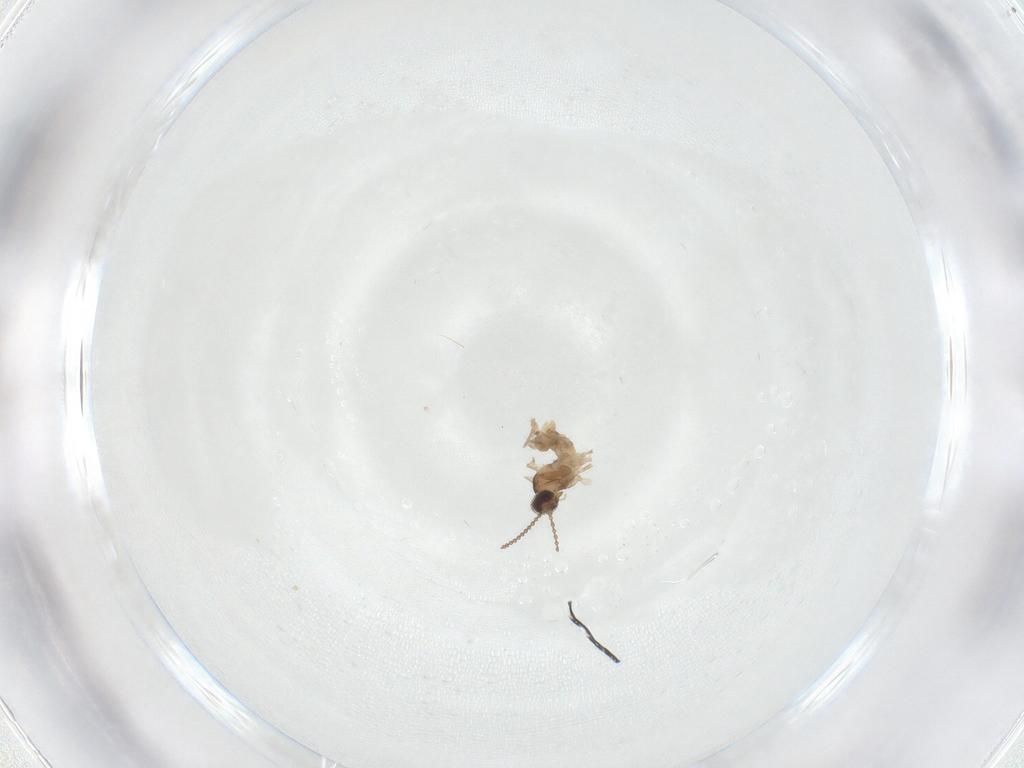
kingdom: Animalia
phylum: Arthropoda
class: Insecta
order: Diptera
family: Cecidomyiidae
